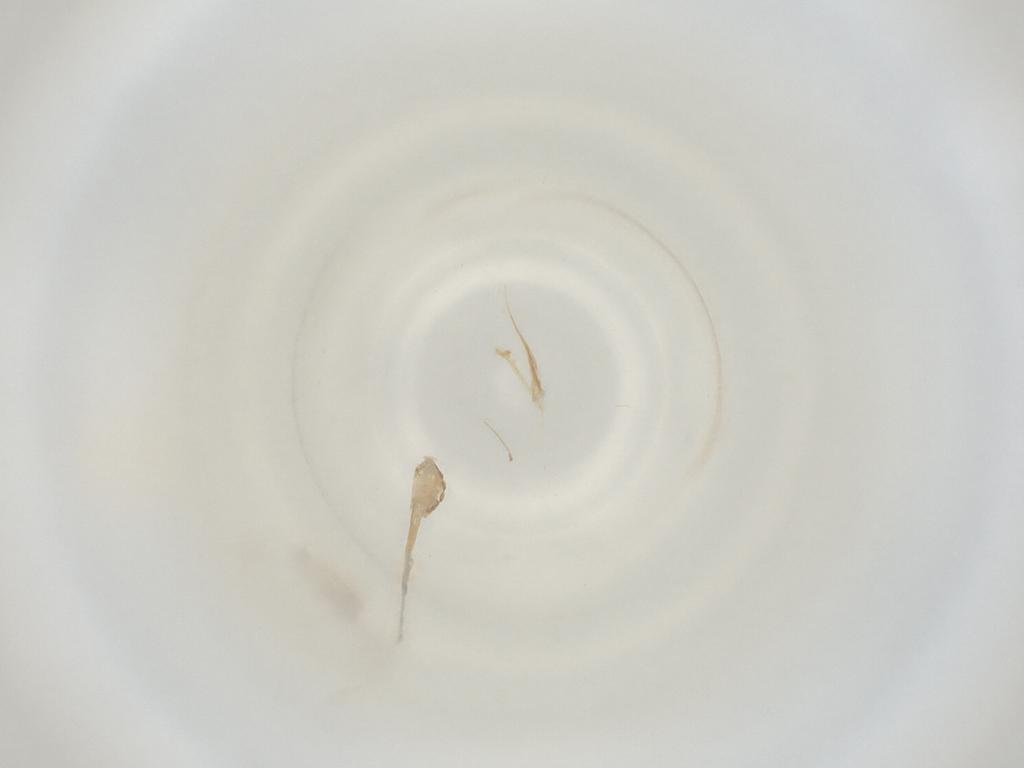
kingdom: Animalia
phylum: Arthropoda
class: Insecta
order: Diptera
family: Cecidomyiidae
